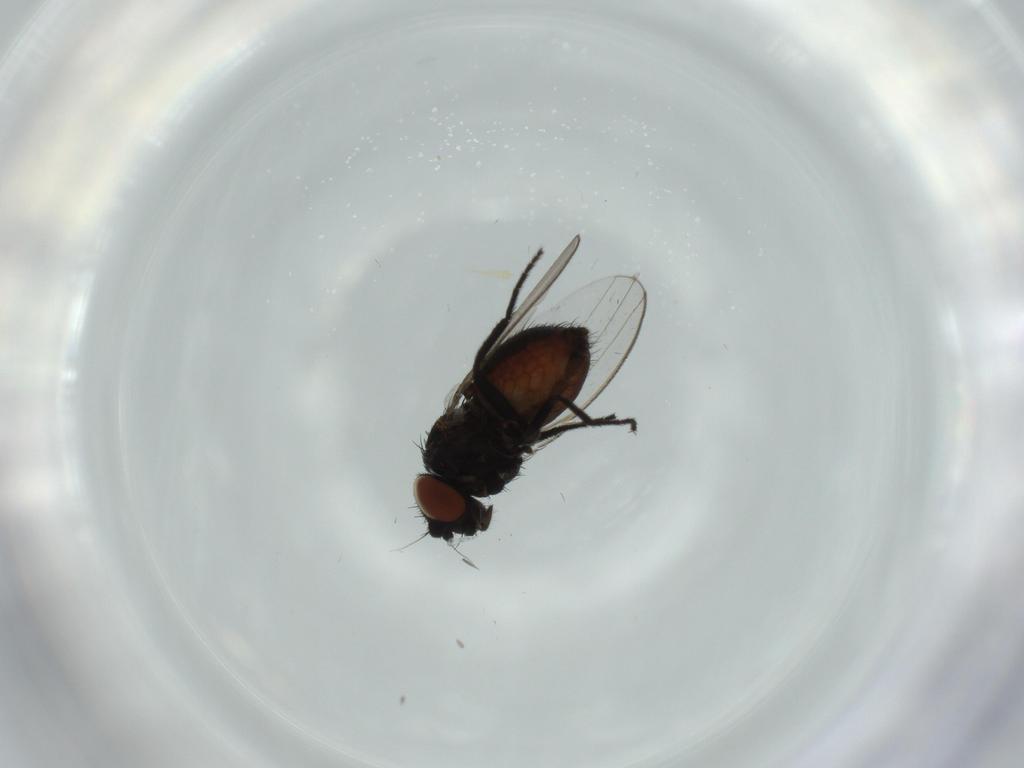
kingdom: Animalia
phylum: Arthropoda
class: Insecta
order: Diptera
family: Milichiidae
